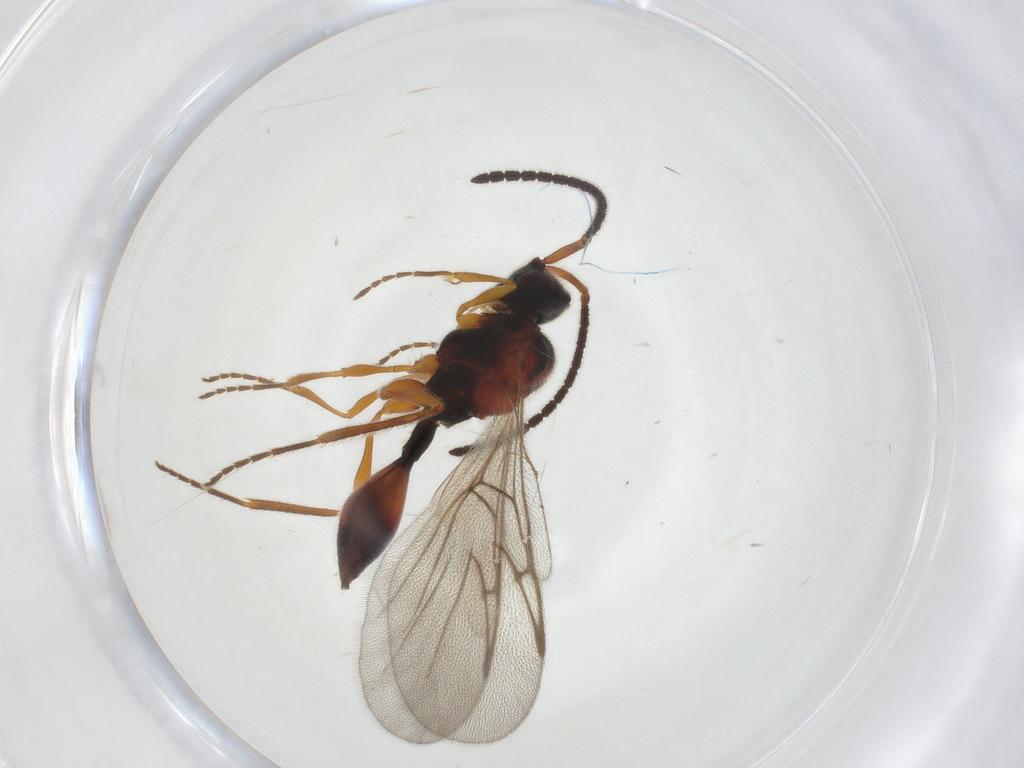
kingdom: Animalia
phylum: Arthropoda
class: Insecta
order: Hymenoptera
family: Diapriidae
